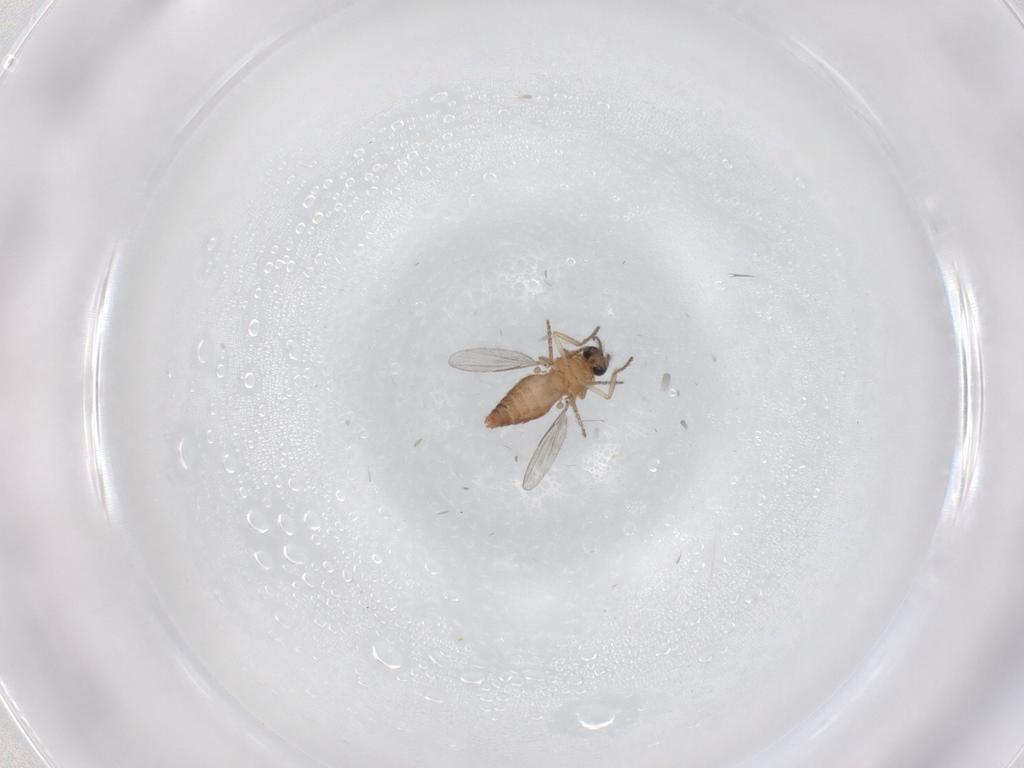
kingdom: Animalia
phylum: Arthropoda
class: Insecta
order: Diptera
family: Ceratopogonidae
